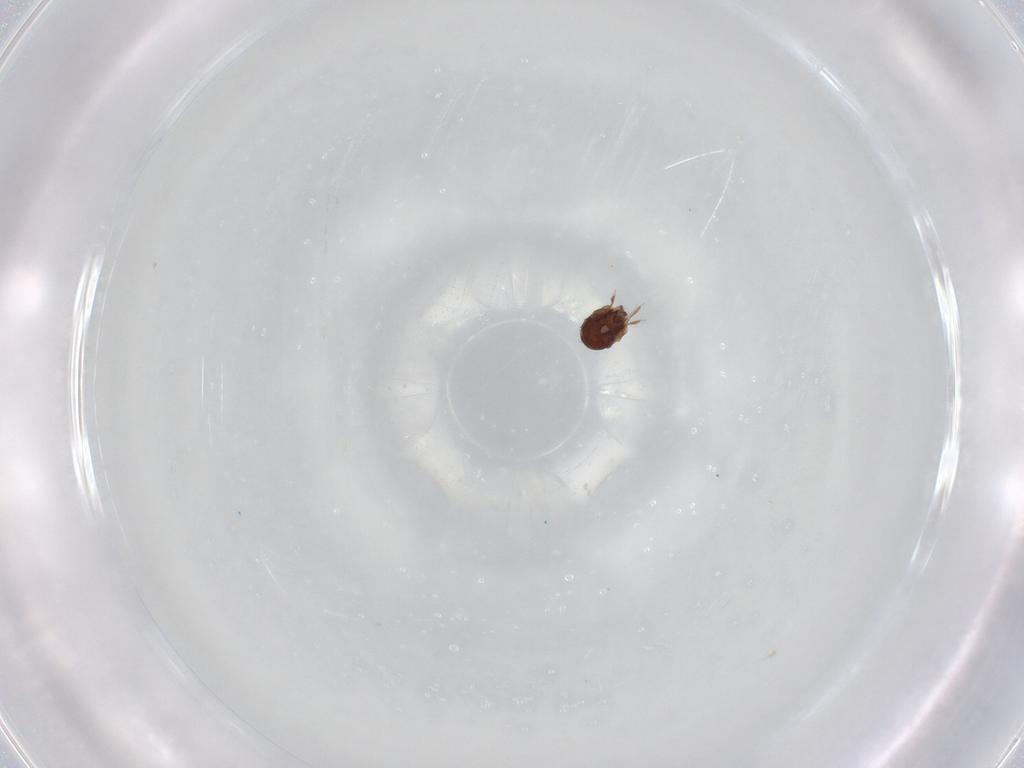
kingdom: Animalia
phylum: Arthropoda
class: Arachnida
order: Sarcoptiformes
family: Phenopelopidae
